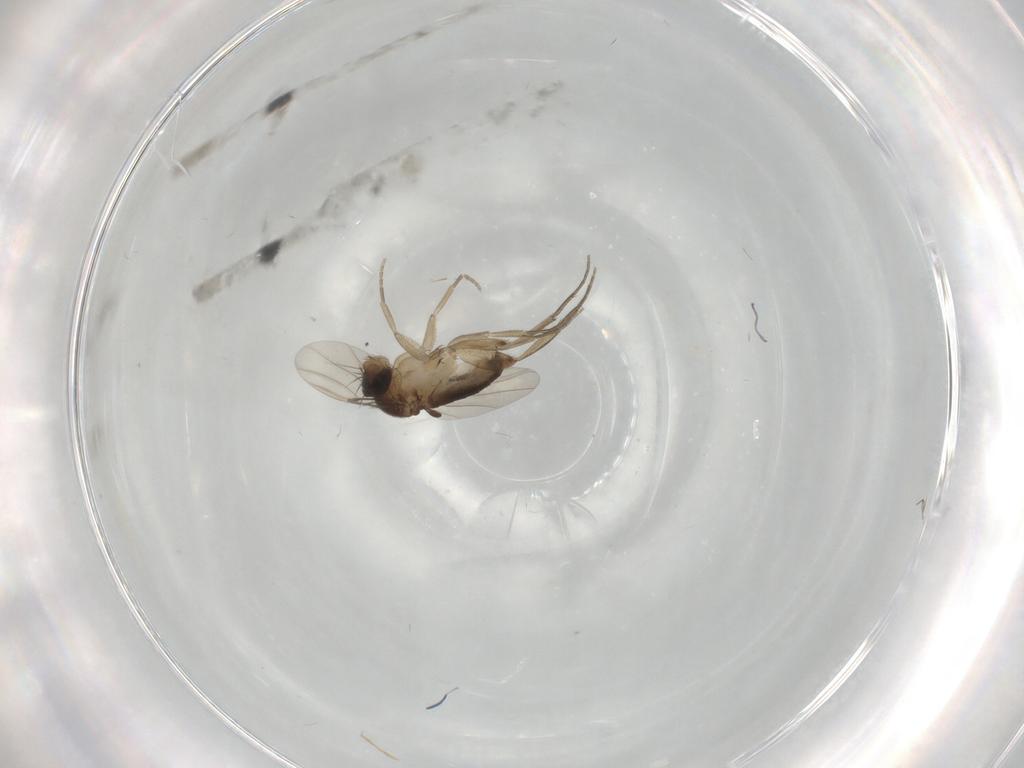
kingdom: Animalia
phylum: Arthropoda
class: Insecta
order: Diptera
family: Phoridae
